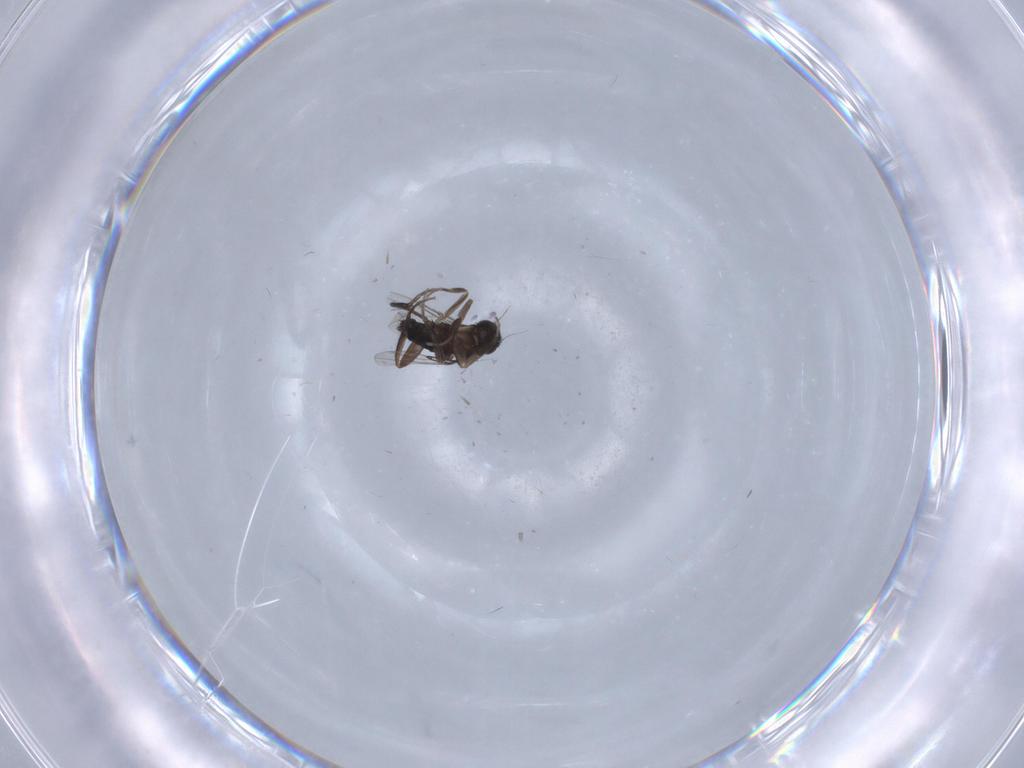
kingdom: Animalia
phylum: Arthropoda
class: Insecta
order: Diptera
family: Phoridae
